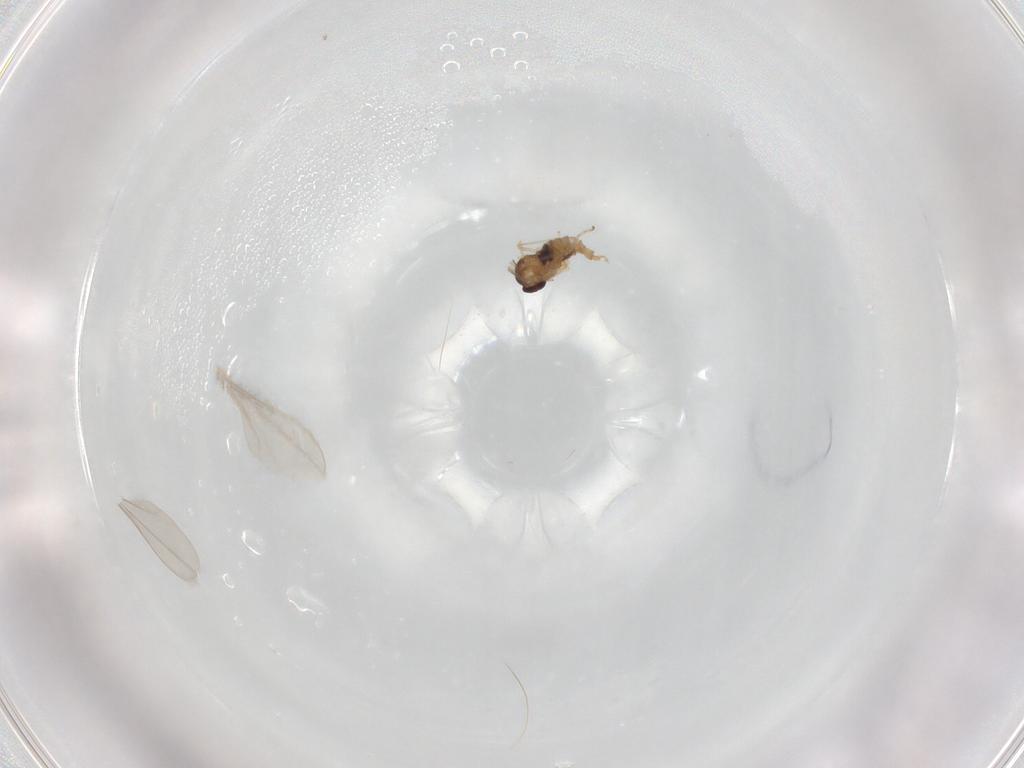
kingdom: Animalia
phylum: Arthropoda
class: Insecta
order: Diptera
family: Cecidomyiidae
